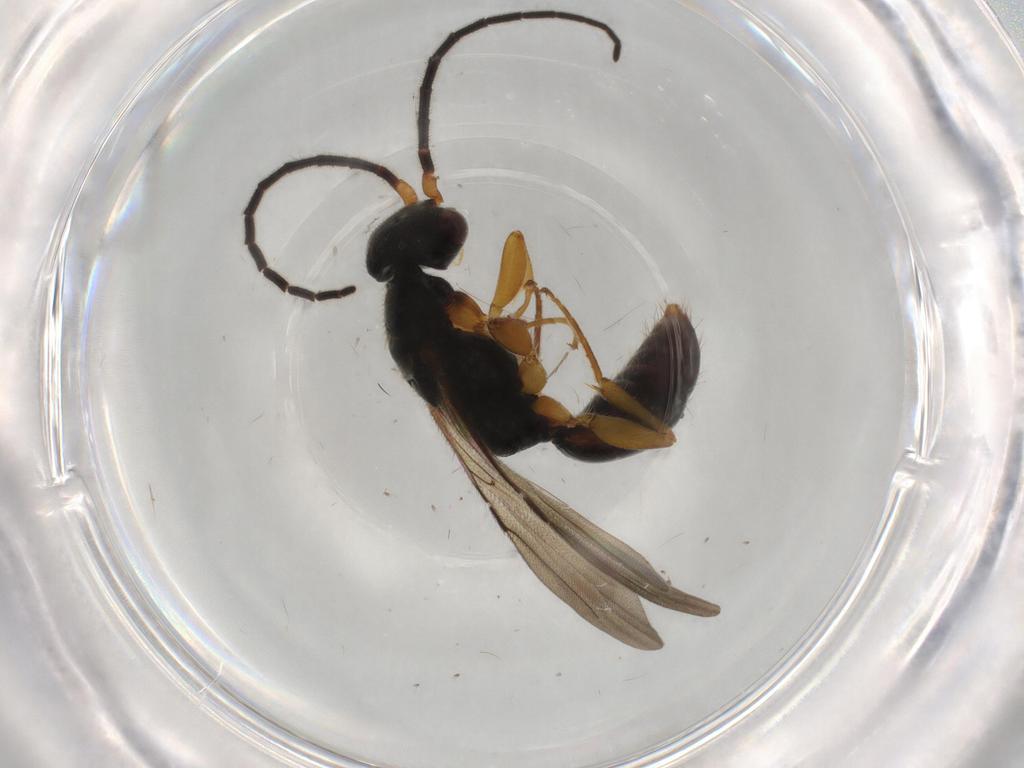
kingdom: Animalia
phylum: Arthropoda
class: Insecta
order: Hymenoptera
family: Bethylidae
